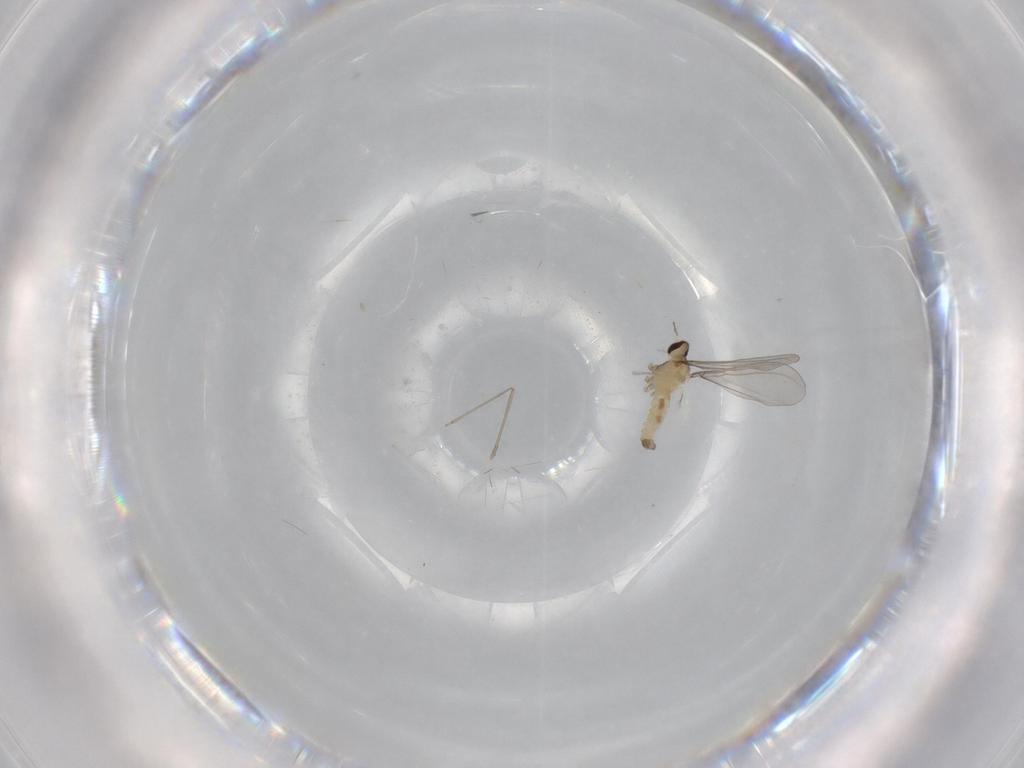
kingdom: Animalia
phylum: Arthropoda
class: Insecta
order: Diptera
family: Cecidomyiidae
